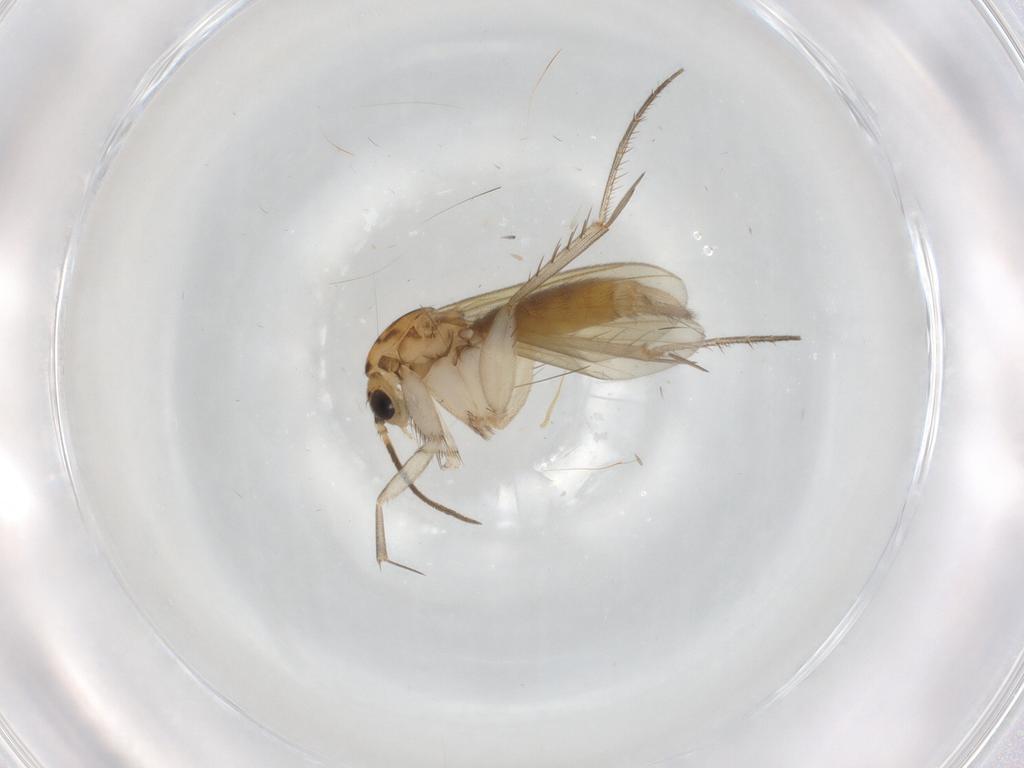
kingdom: Animalia
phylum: Arthropoda
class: Insecta
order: Diptera
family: Mycetophilidae
